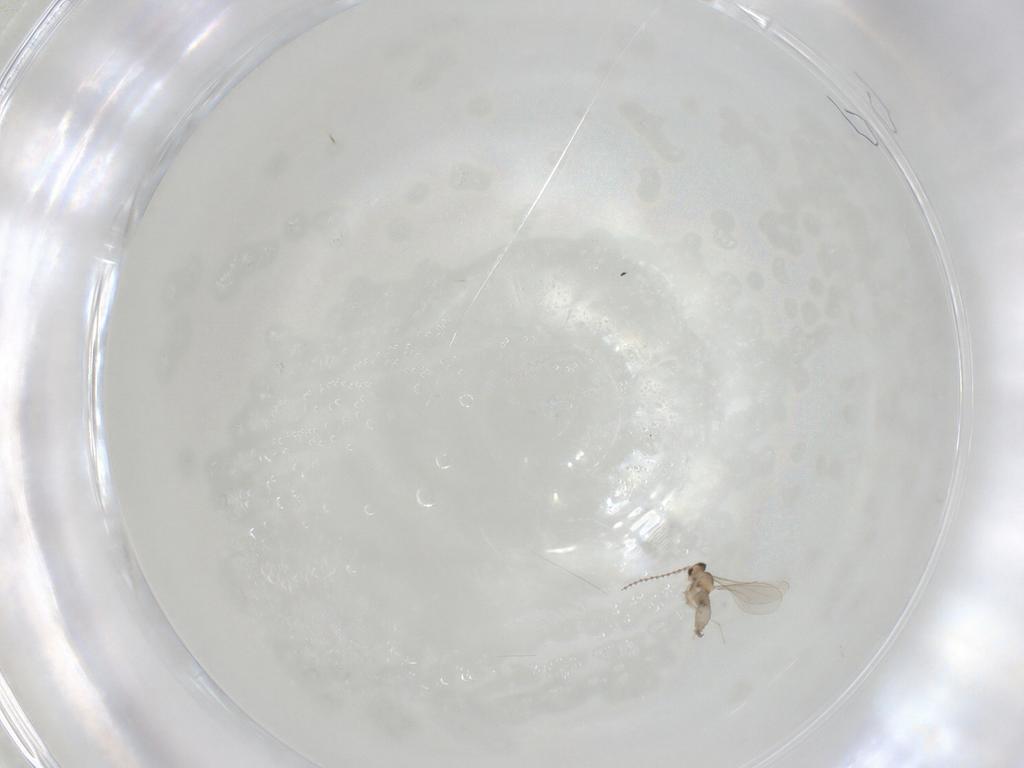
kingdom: Animalia
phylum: Arthropoda
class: Insecta
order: Diptera
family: Cecidomyiidae
